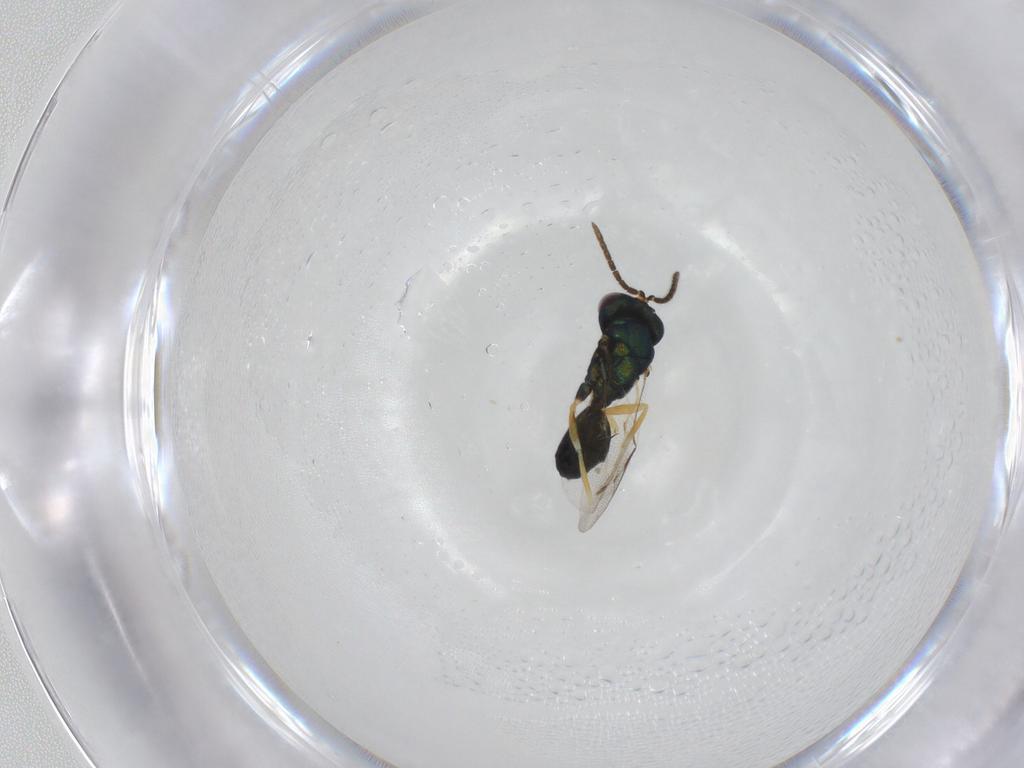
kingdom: Animalia
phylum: Arthropoda
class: Insecta
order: Hymenoptera
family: Pteromalidae
